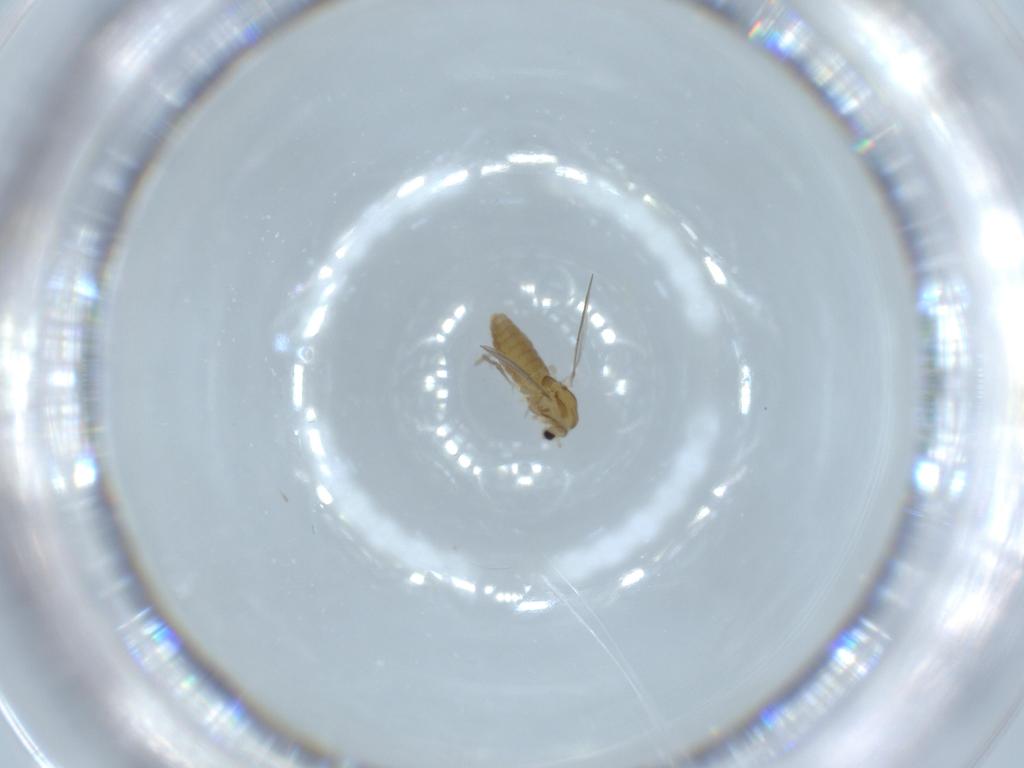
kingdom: Animalia
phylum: Arthropoda
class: Insecta
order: Diptera
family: Chironomidae
